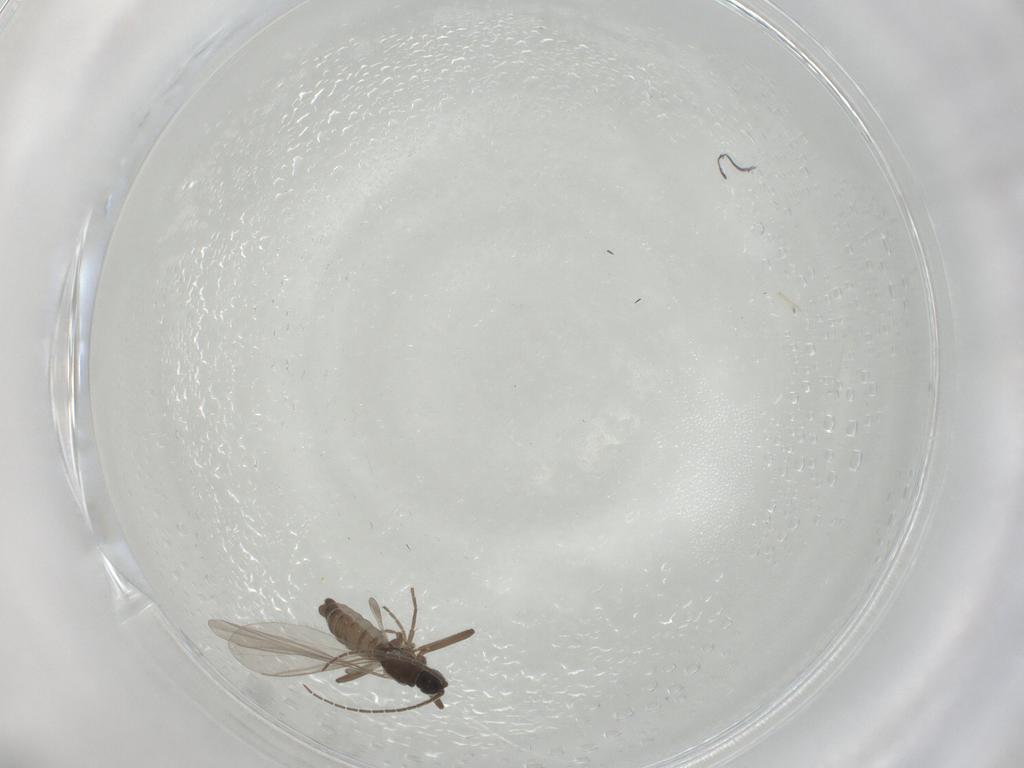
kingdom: Animalia
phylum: Arthropoda
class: Insecta
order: Diptera
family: Sciaridae
